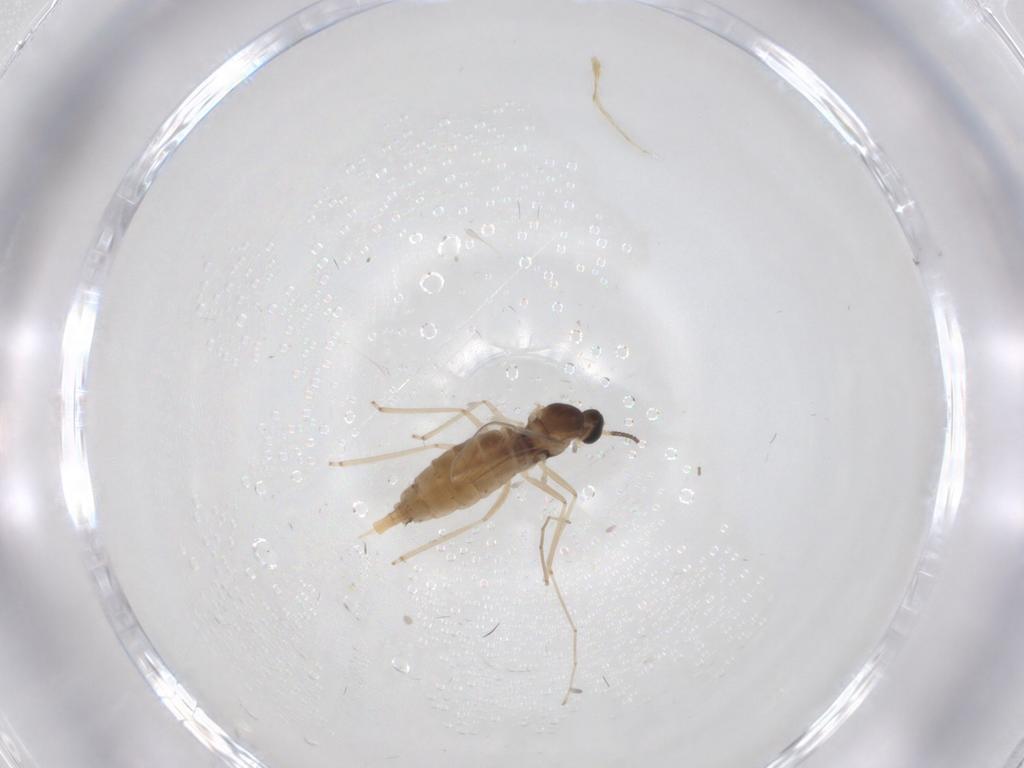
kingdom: Animalia
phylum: Arthropoda
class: Insecta
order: Diptera
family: Cecidomyiidae
